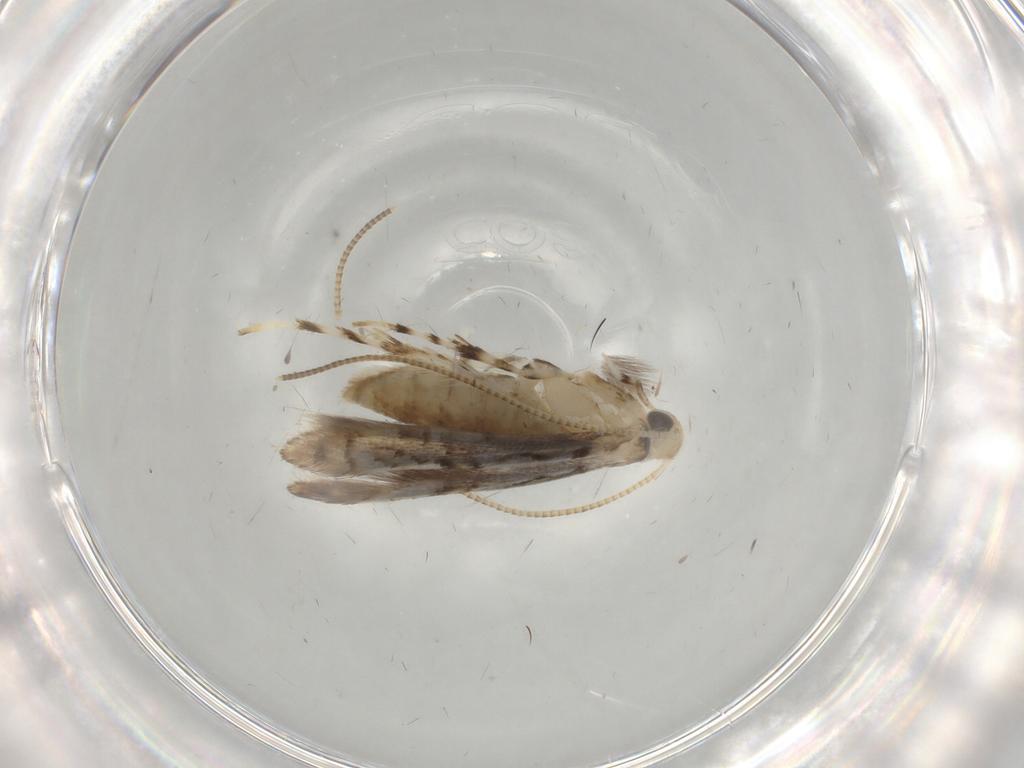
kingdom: Animalia
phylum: Arthropoda
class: Insecta
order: Lepidoptera
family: Gracillariidae
